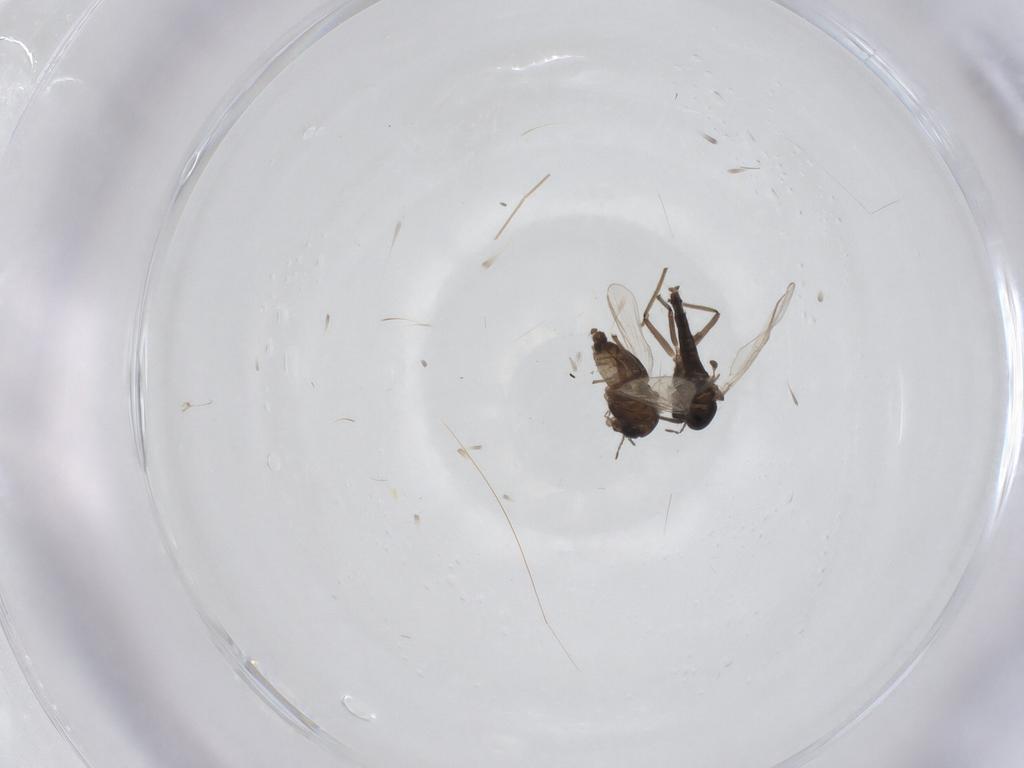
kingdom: Animalia
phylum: Arthropoda
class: Insecta
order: Diptera
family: Chironomidae
